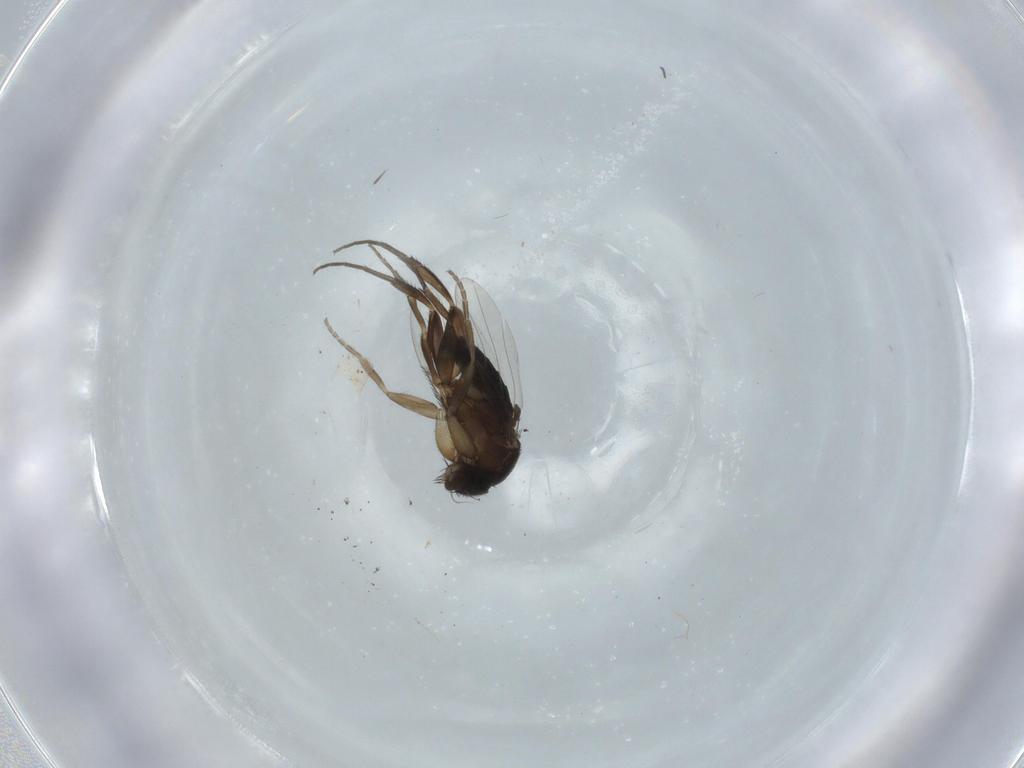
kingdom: Animalia
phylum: Arthropoda
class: Insecta
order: Diptera
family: Phoridae
